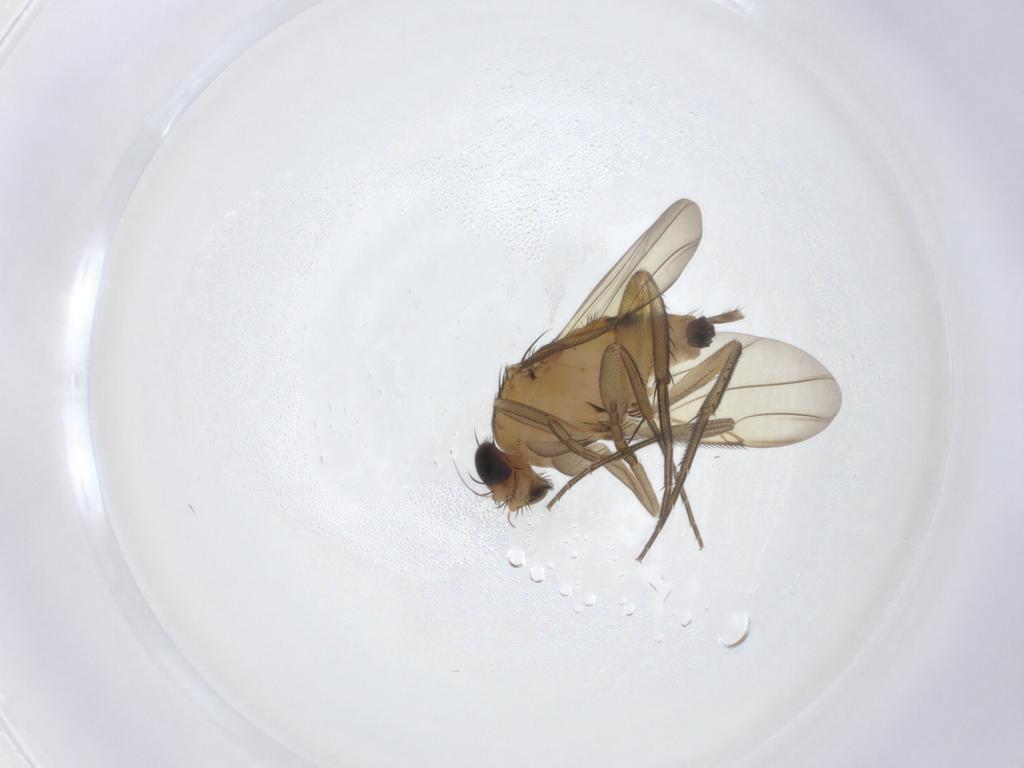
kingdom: Animalia
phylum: Arthropoda
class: Insecta
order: Diptera
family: Phoridae
